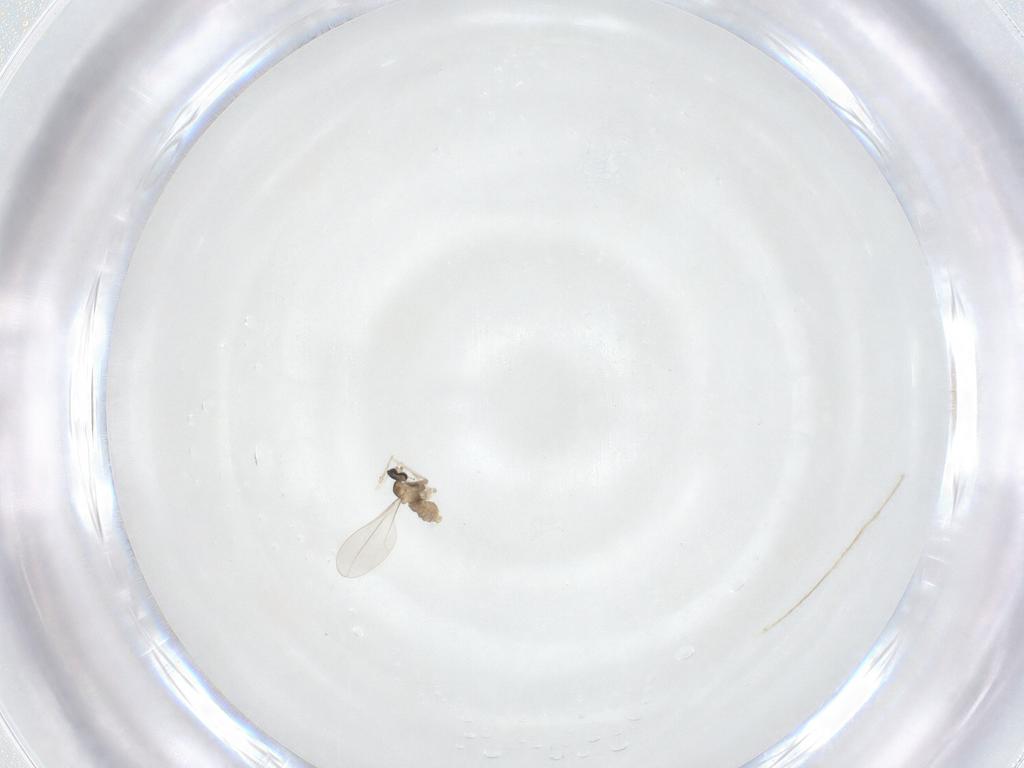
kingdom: Animalia
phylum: Arthropoda
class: Insecta
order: Diptera
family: Cecidomyiidae
